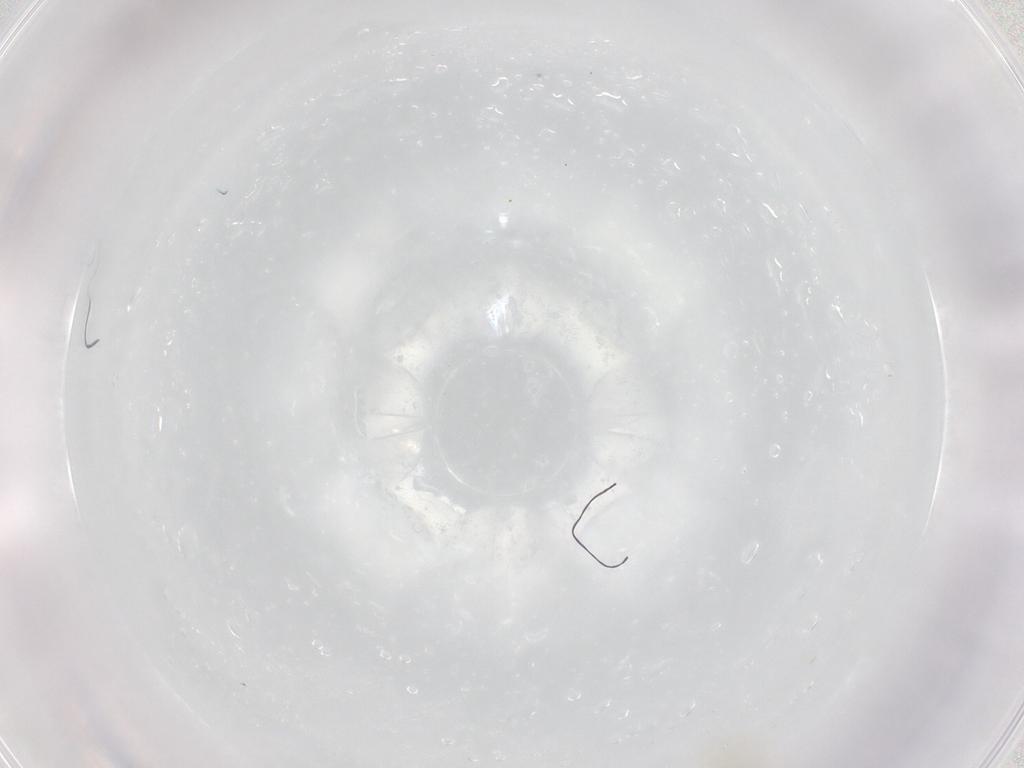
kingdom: Animalia
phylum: Arthropoda
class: Arachnida
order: Trombidiformes
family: Bdellidae
